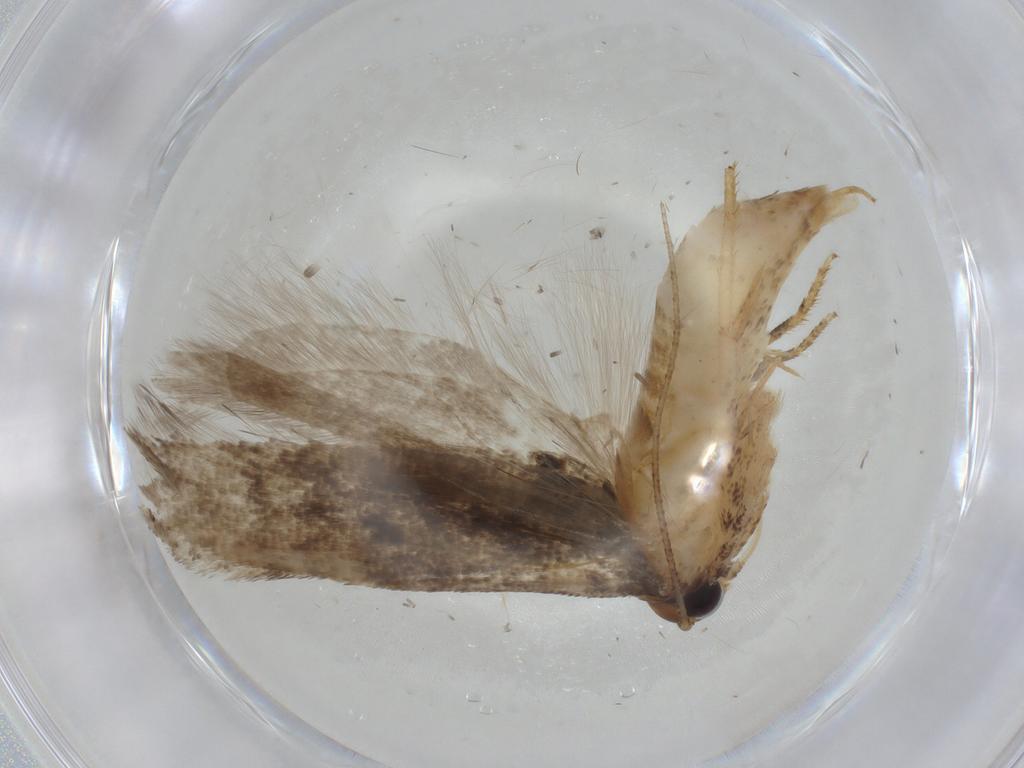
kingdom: Animalia
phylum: Arthropoda
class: Insecta
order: Lepidoptera
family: Gelechiidae
